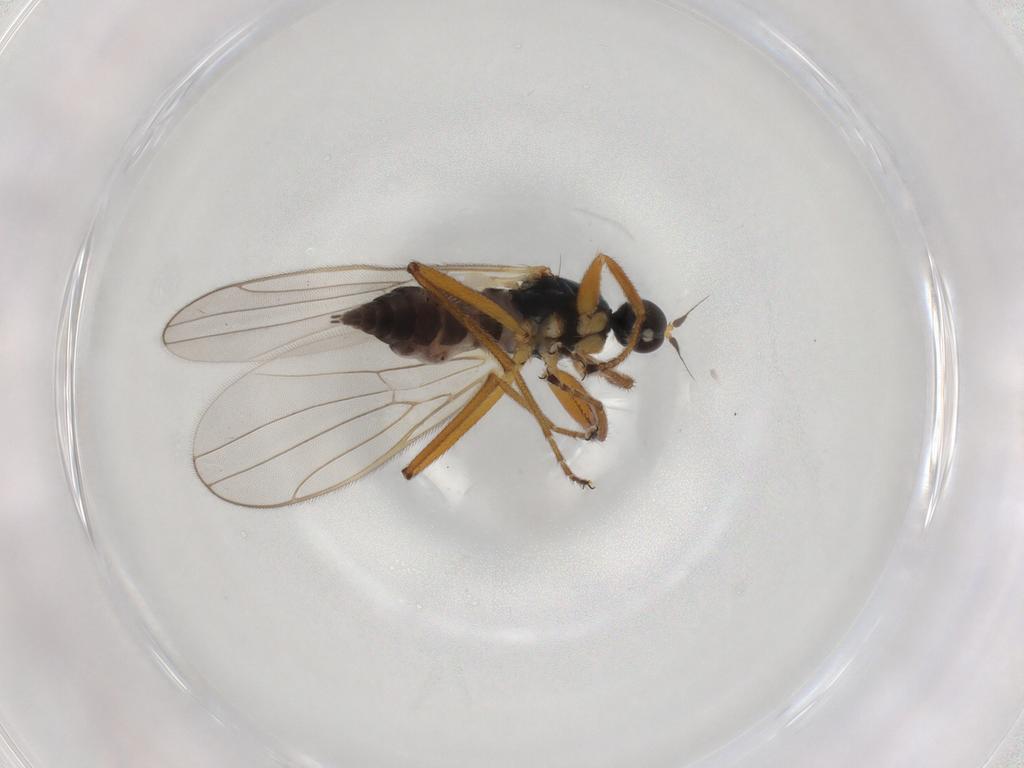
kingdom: Animalia
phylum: Arthropoda
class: Insecta
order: Diptera
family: Hybotidae
